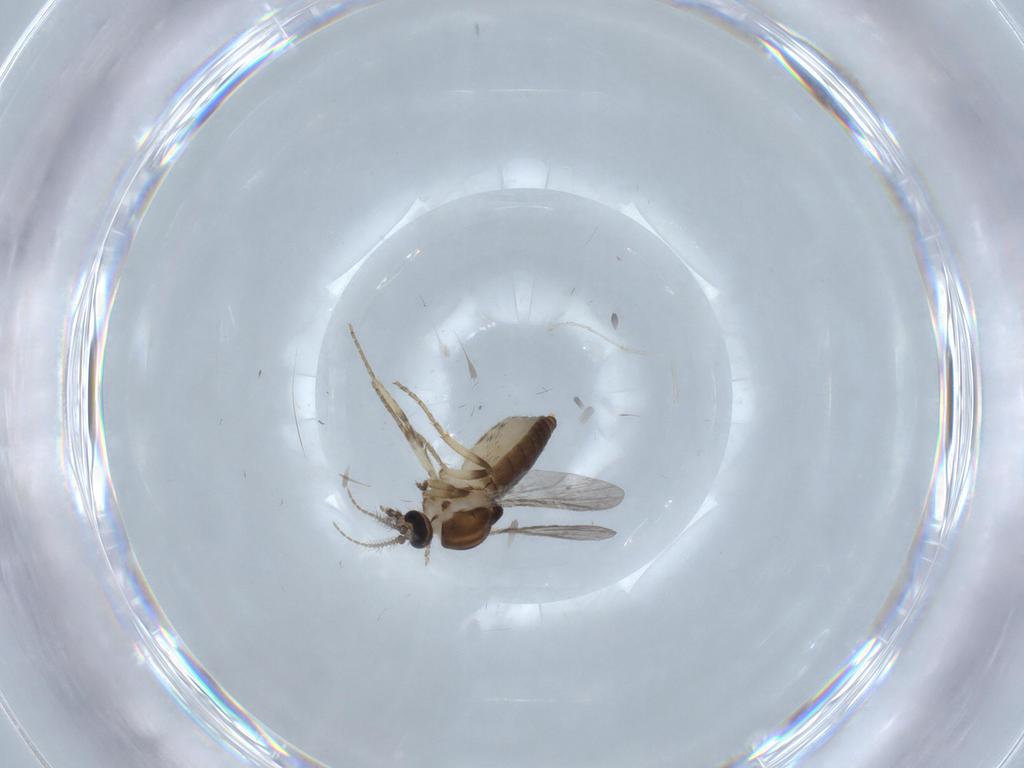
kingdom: Animalia
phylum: Arthropoda
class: Insecta
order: Diptera
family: Ceratopogonidae
